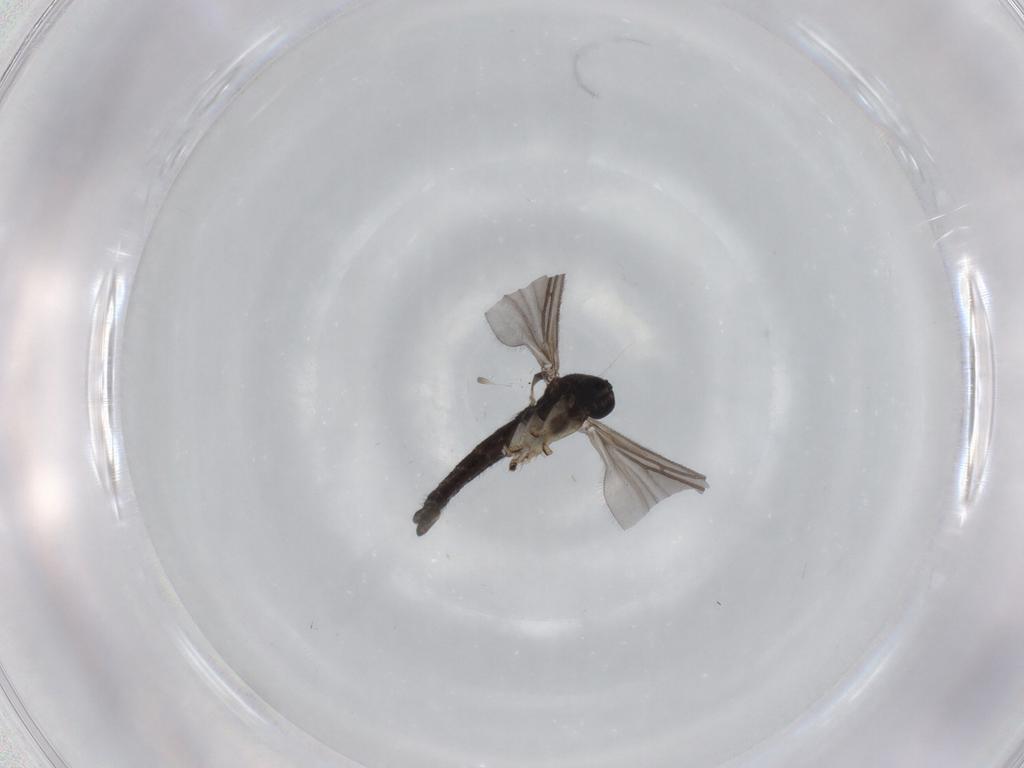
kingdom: Animalia
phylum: Arthropoda
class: Insecta
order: Diptera
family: Sciaridae
